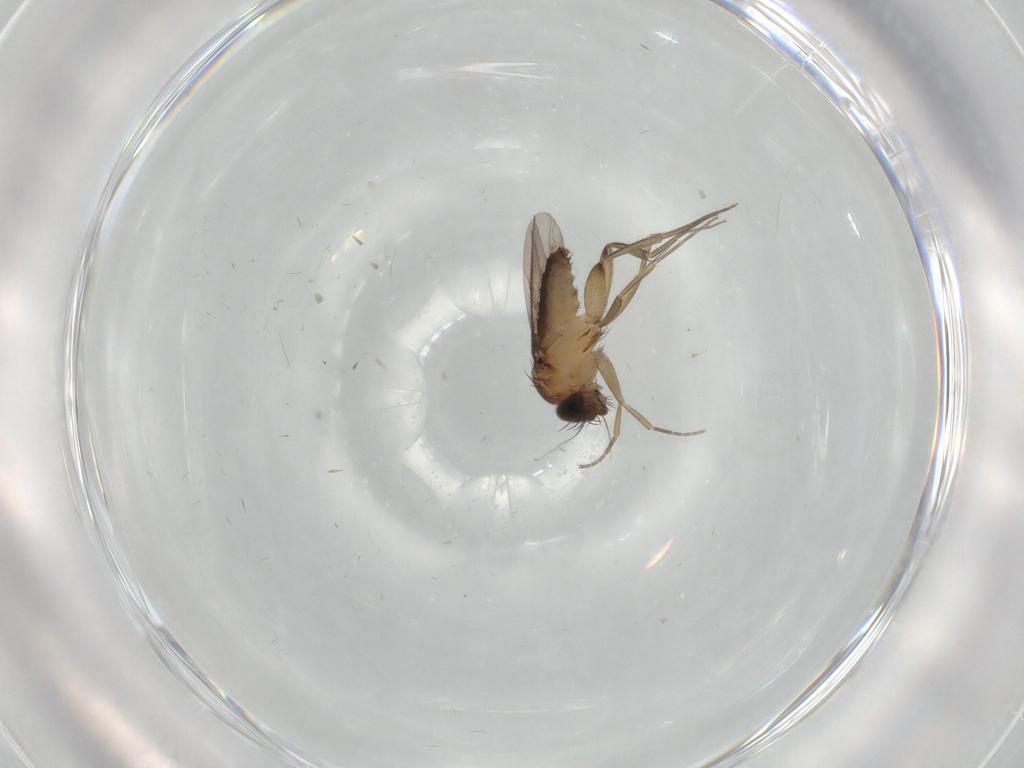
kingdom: Animalia
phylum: Arthropoda
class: Insecta
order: Diptera
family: Phoridae
